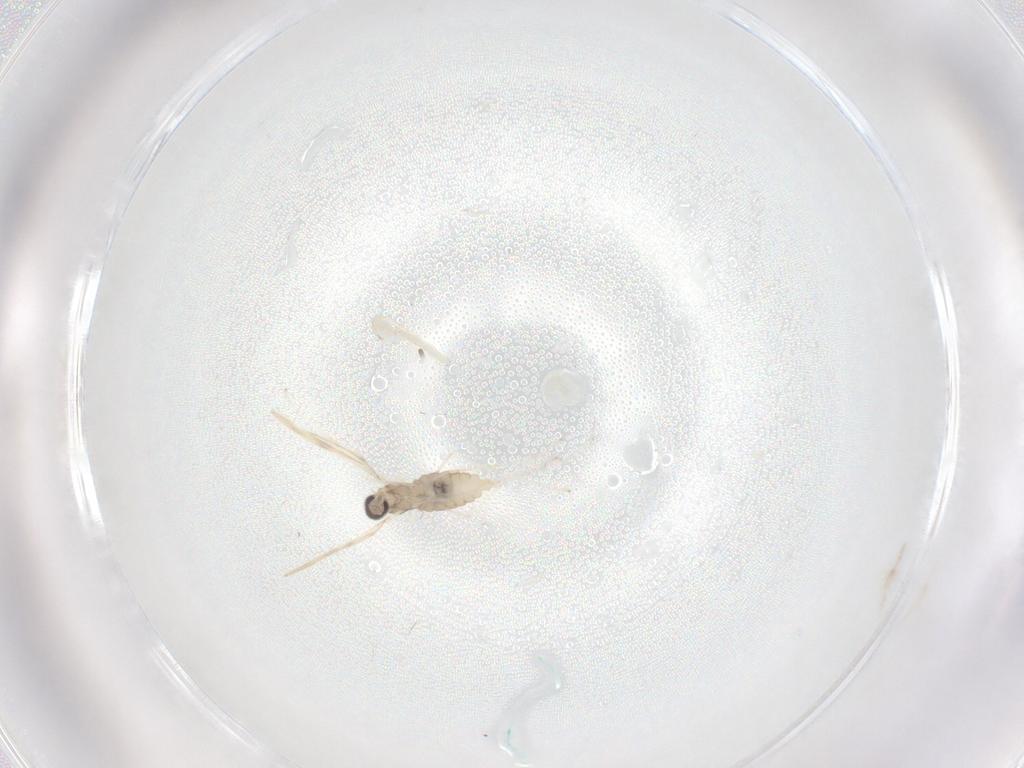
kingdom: Animalia
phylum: Arthropoda
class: Insecta
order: Diptera
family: Cecidomyiidae
